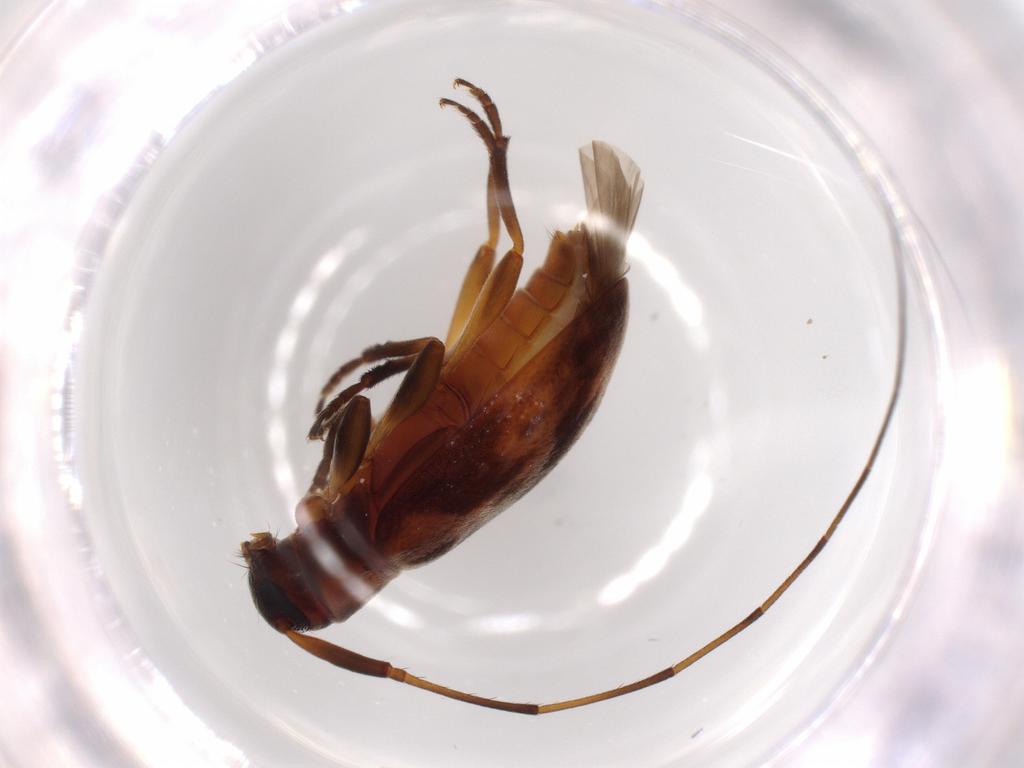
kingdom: Animalia
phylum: Arthropoda
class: Insecta
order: Coleoptera
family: Cerambycidae
